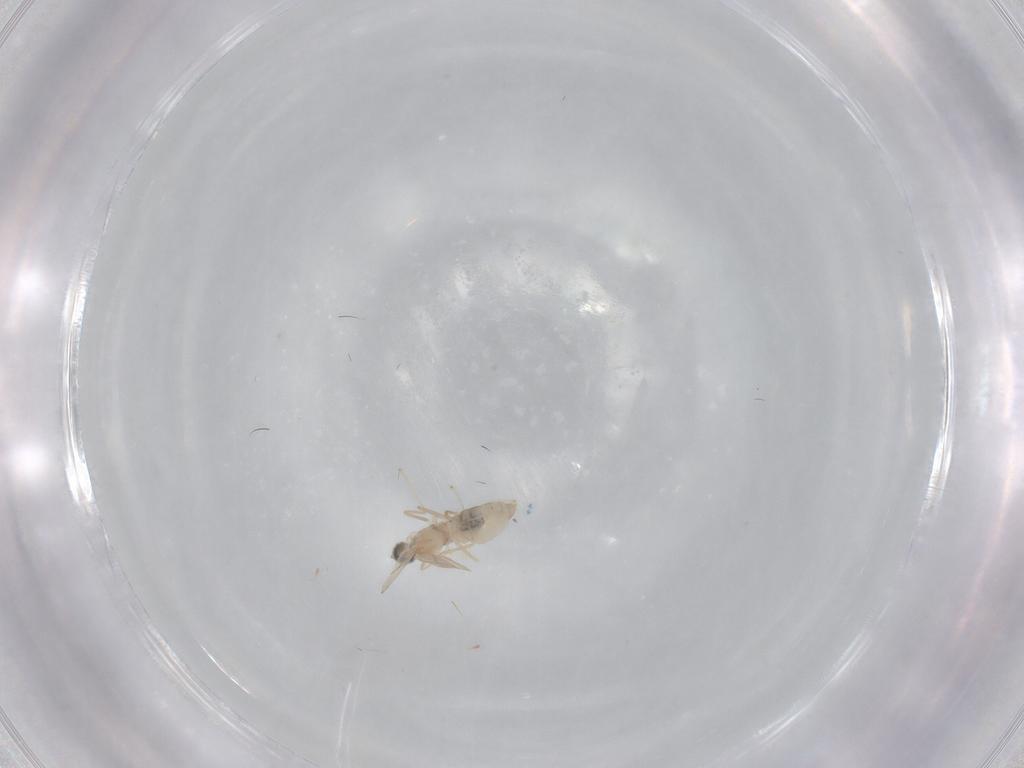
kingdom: Animalia
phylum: Arthropoda
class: Insecta
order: Diptera
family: Cecidomyiidae
